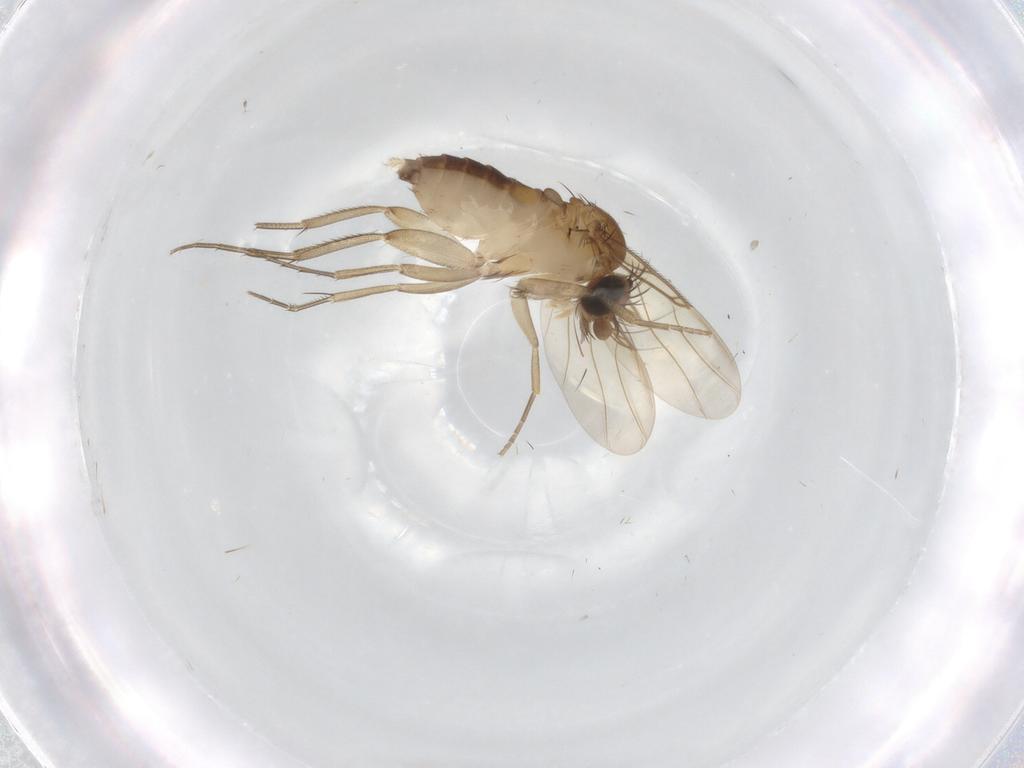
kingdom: Animalia
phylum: Arthropoda
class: Insecta
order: Diptera
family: Phoridae
